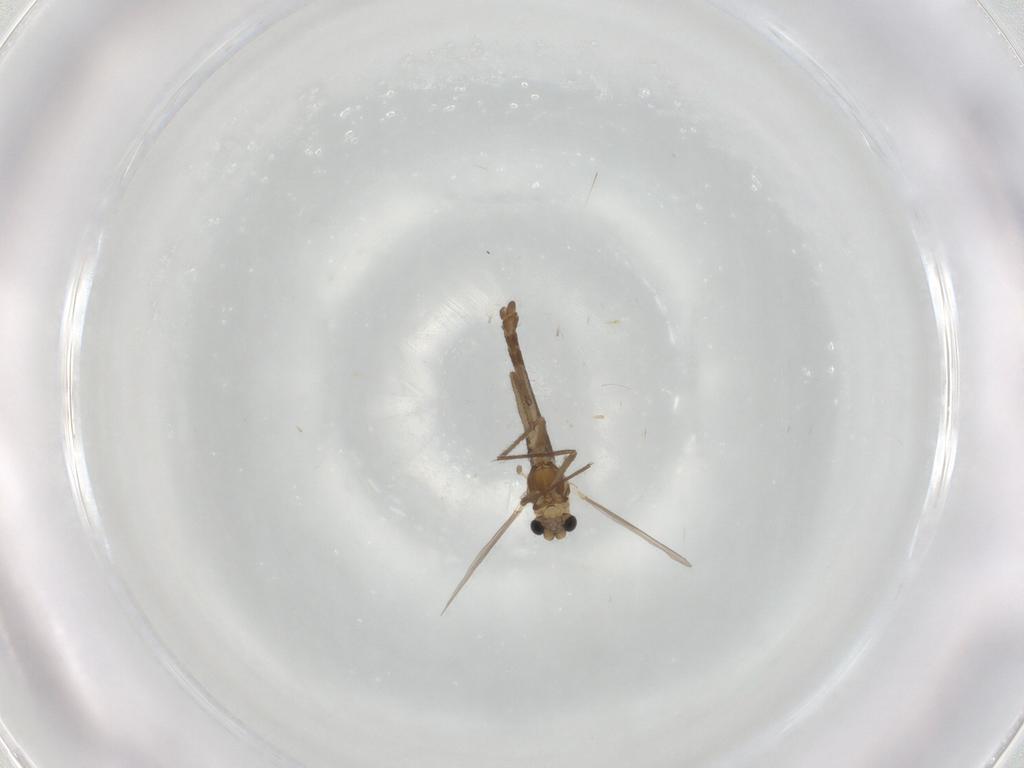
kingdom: Animalia
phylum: Arthropoda
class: Insecta
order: Diptera
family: Chironomidae
